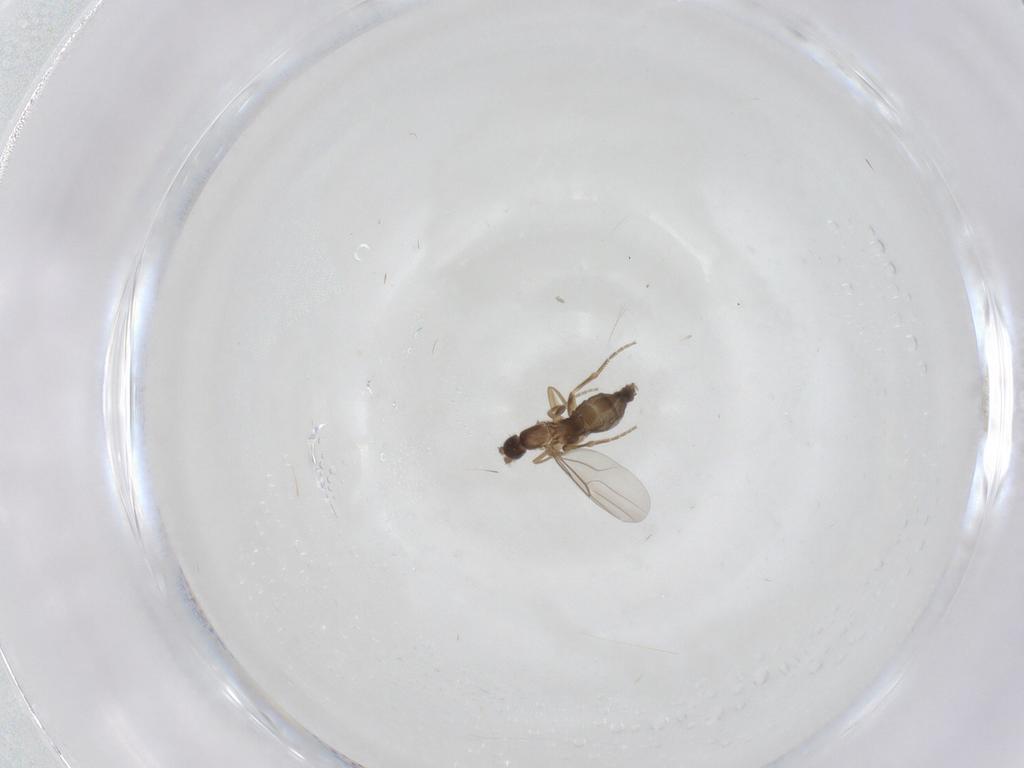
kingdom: Animalia
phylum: Arthropoda
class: Insecta
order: Diptera
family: Cecidomyiidae
